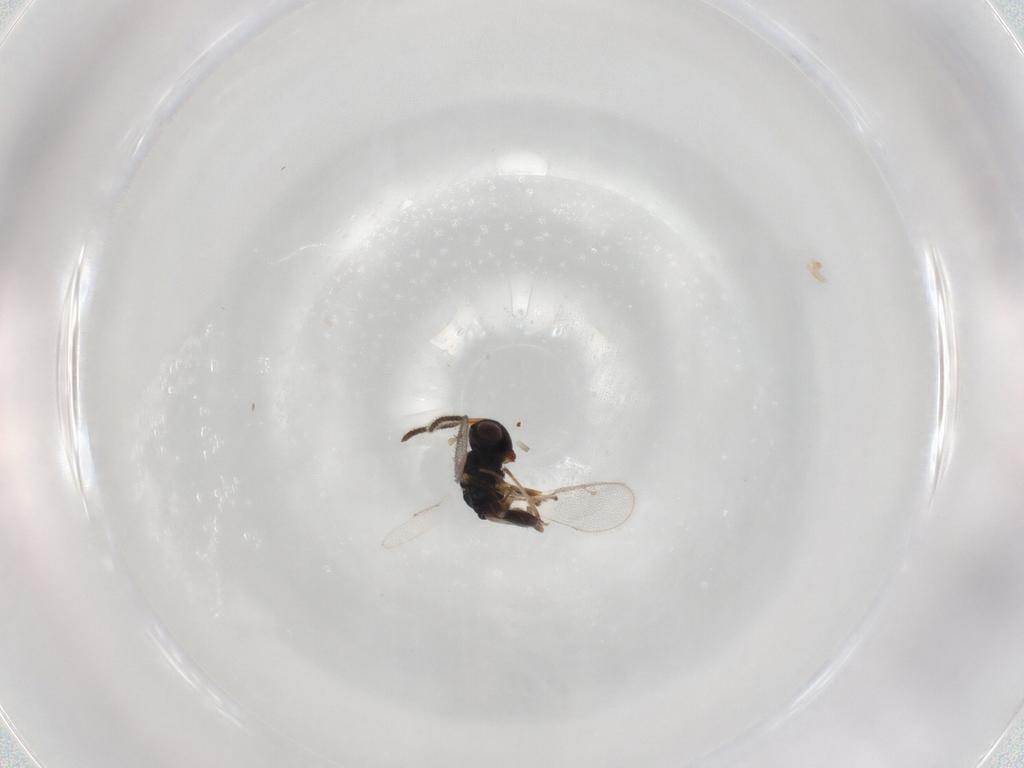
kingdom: Animalia
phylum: Arthropoda
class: Insecta
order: Hymenoptera
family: Pteromalidae
